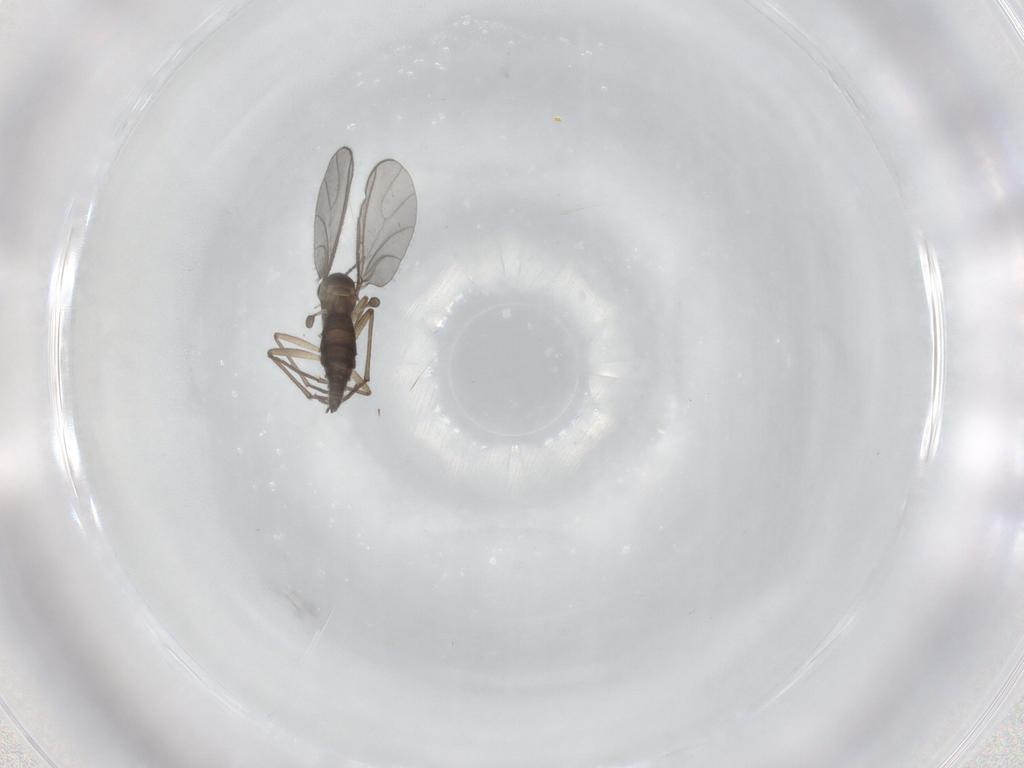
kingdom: Animalia
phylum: Arthropoda
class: Insecta
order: Diptera
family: Sciaridae
